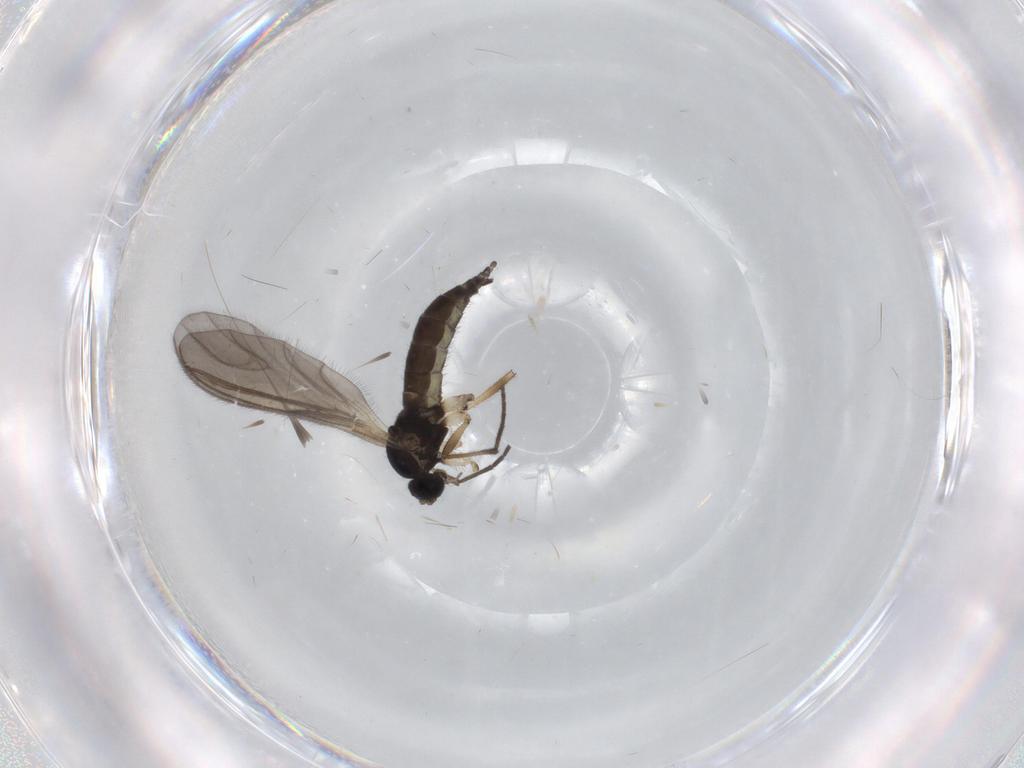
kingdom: Animalia
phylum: Arthropoda
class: Insecta
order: Diptera
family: Sciaridae
